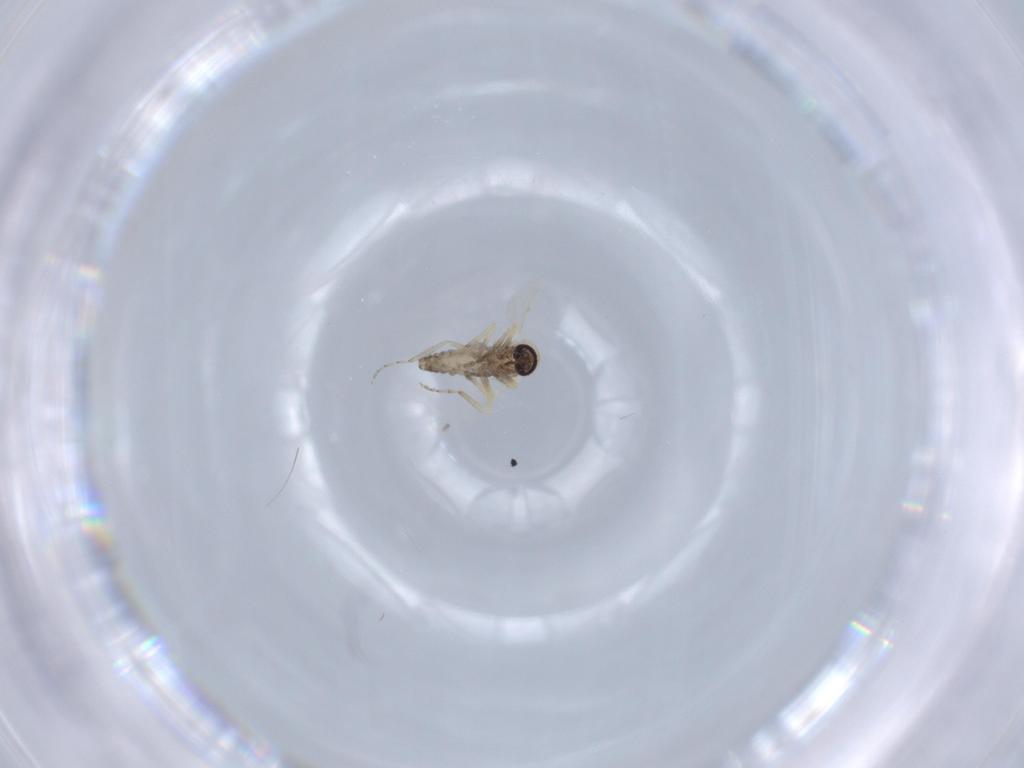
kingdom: Animalia
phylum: Arthropoda
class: Insecta
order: Diptera
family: Ceratopogonidae
